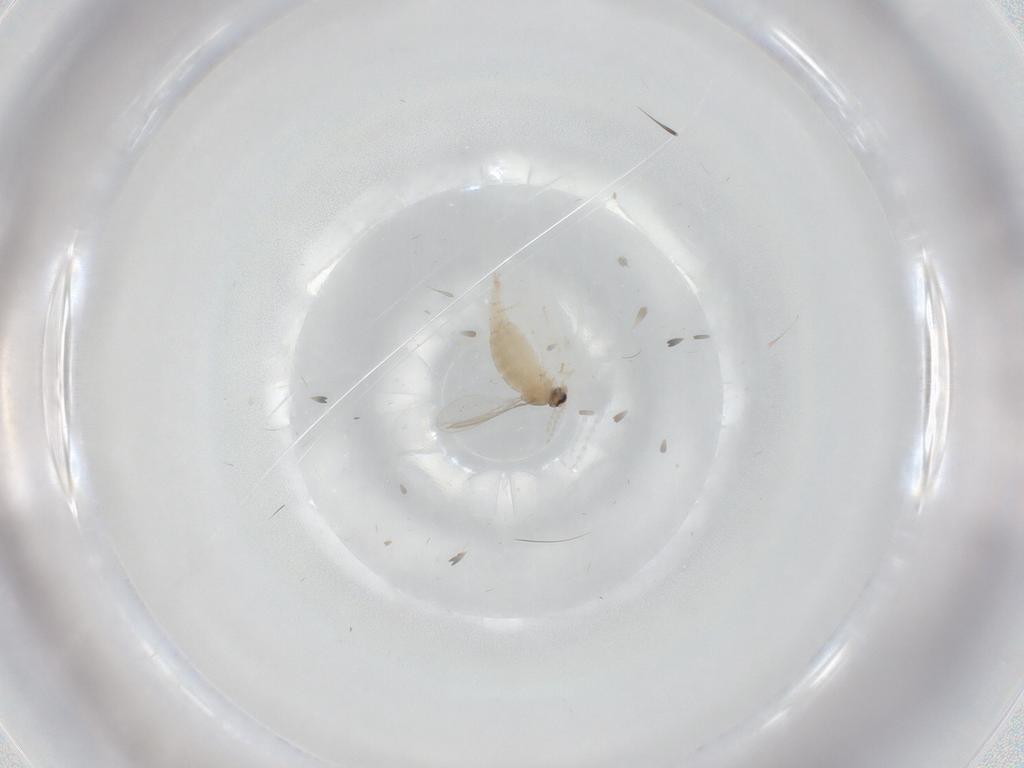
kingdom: Animalia
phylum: Arthropoda
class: Insecta
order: Diptera
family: Cecidomyiidae
